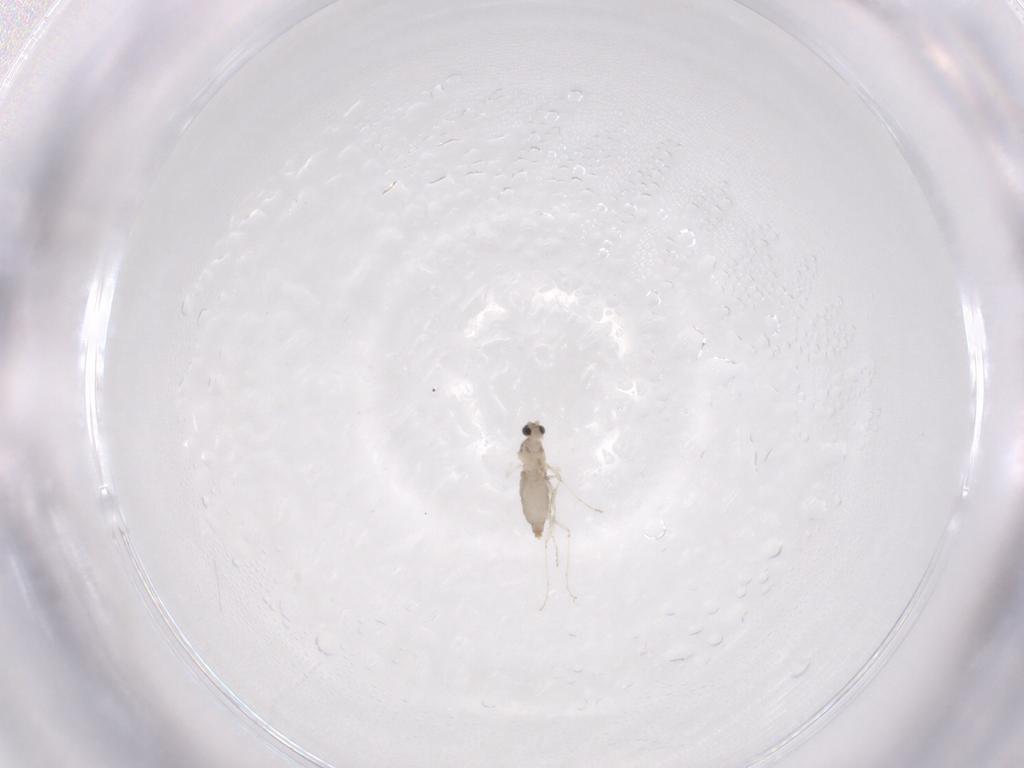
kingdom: Animalia
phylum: Arthropoda
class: Insecta
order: Diptera
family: Cecidomyiidae
